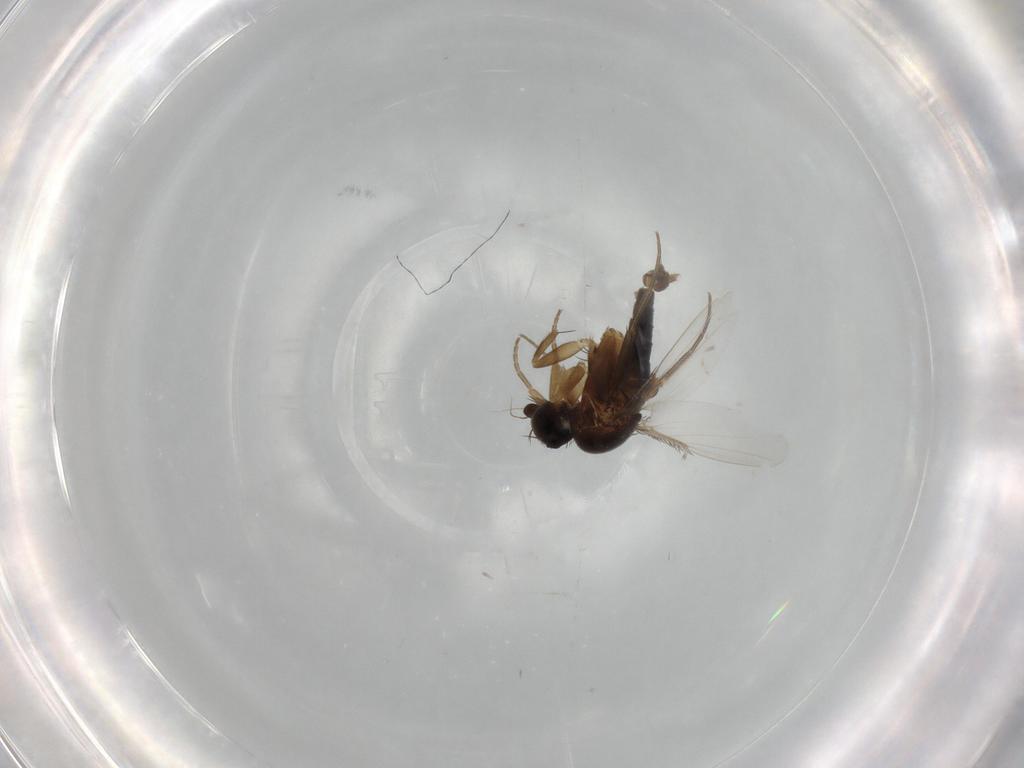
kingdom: Animalia
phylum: Arthropoda
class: Insecta
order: Diptera
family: Phoridae
